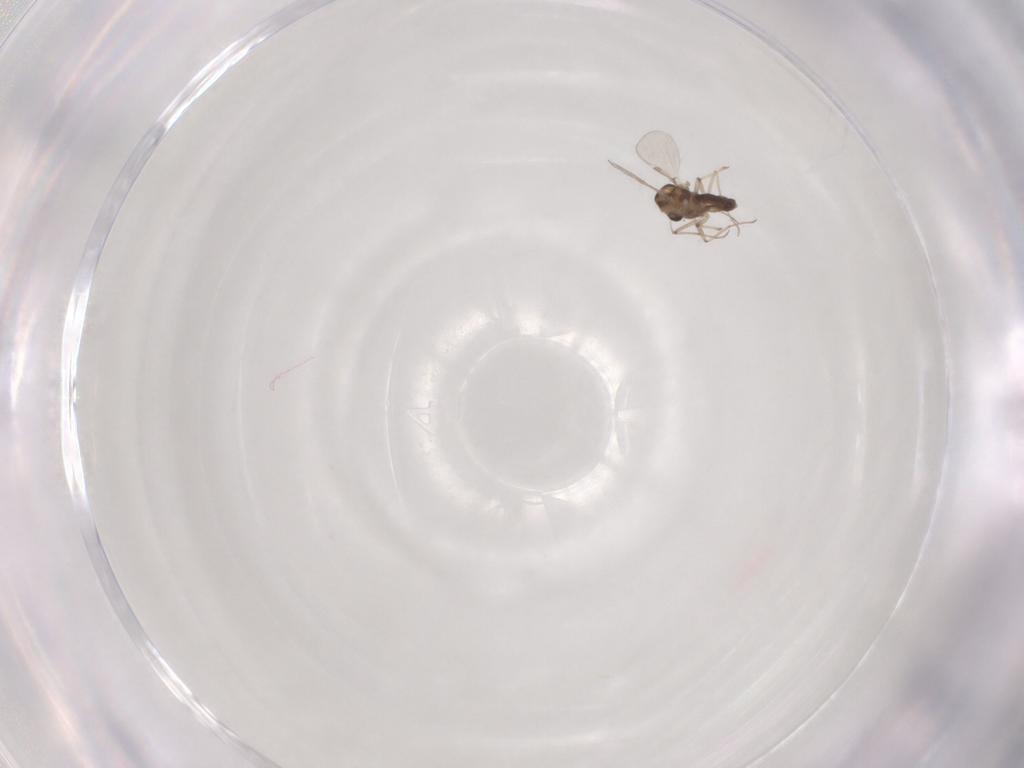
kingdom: Animalia
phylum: Arthropoda
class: Insecta
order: Diptera
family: Chironomidae
